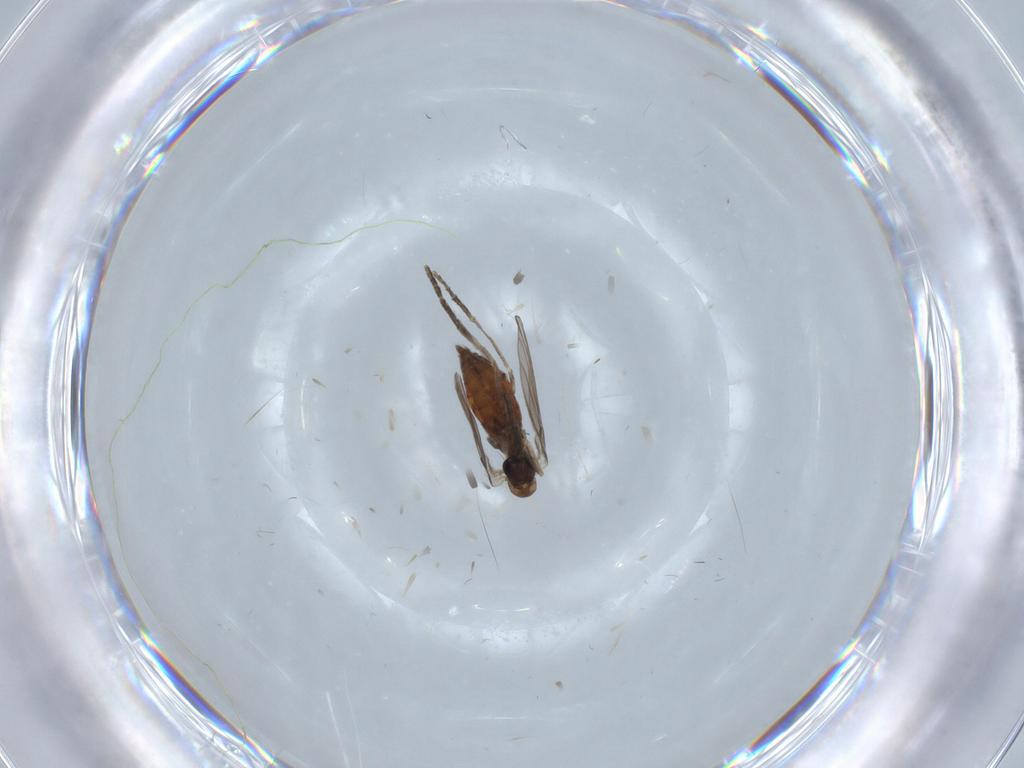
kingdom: Animalia
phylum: Arthropoda
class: Insecta
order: Diptera
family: Psychodidae
